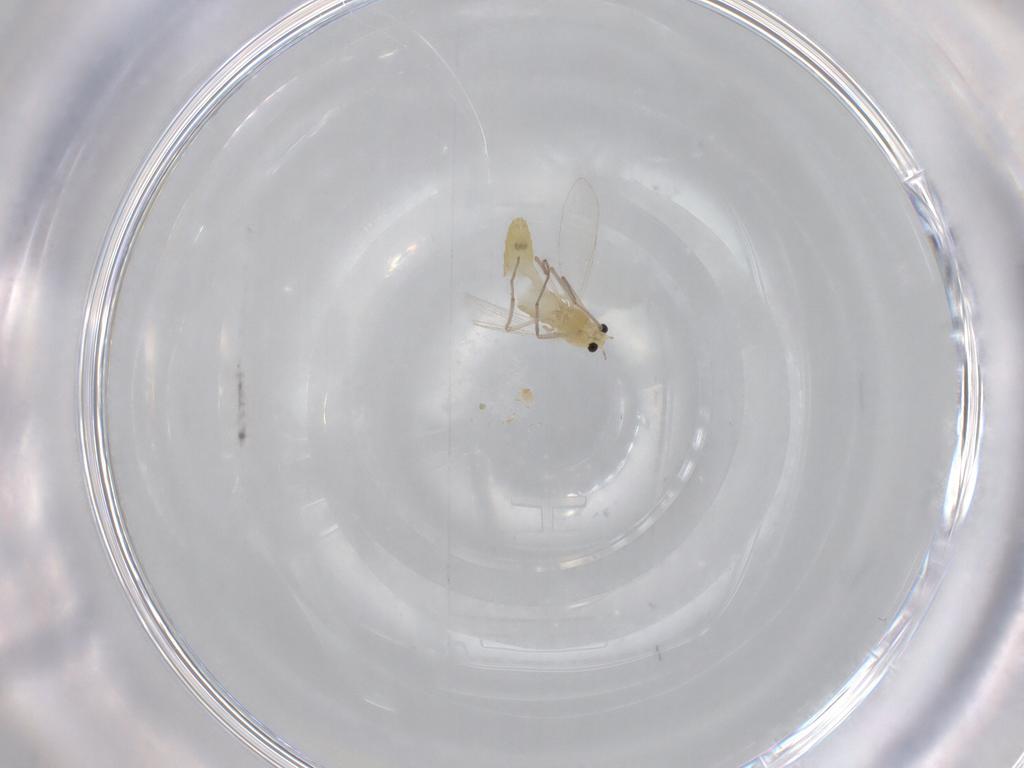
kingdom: Animalia
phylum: Arthropoda
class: Insecta
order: Diptera
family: Chironomidae
